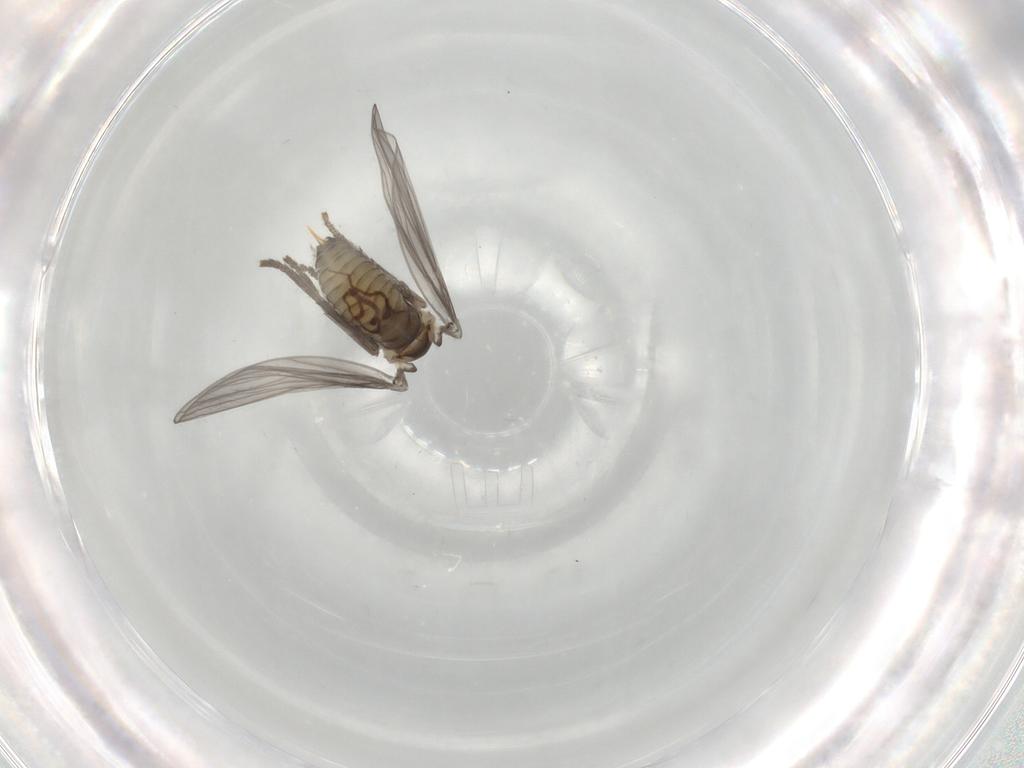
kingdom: Animalia
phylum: Arthropoda
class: Insecta
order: Diptera
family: Psychodidae
